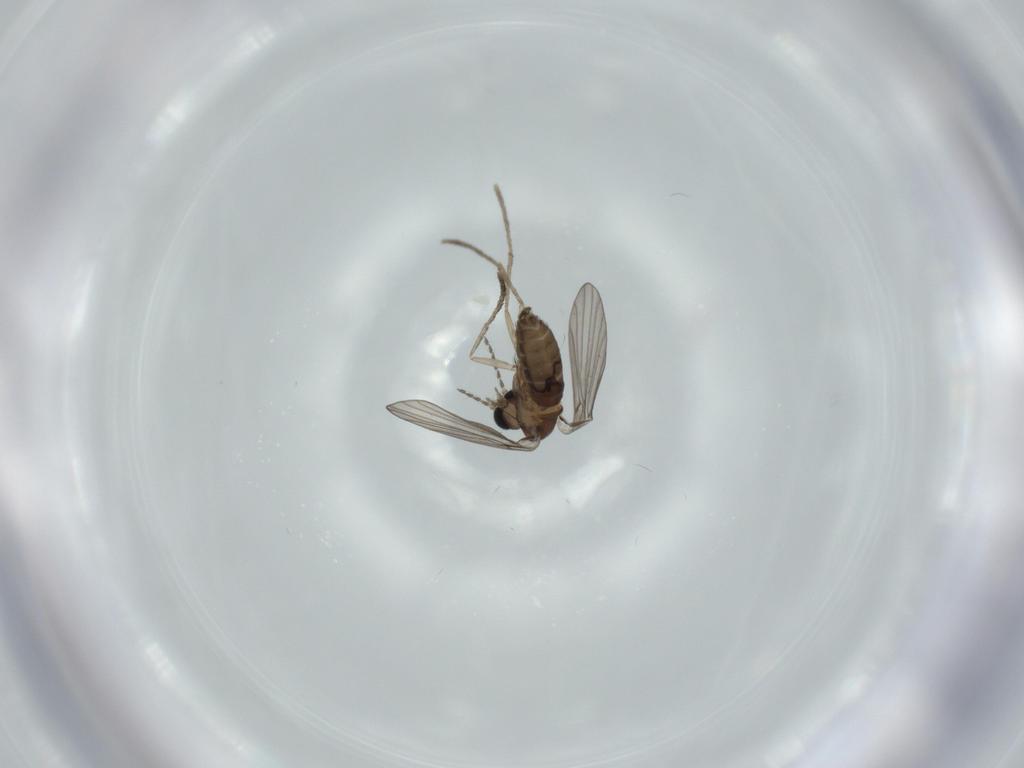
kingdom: Animalia
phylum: Arthropoda
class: Insecta
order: Diptera
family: Psychodidae
